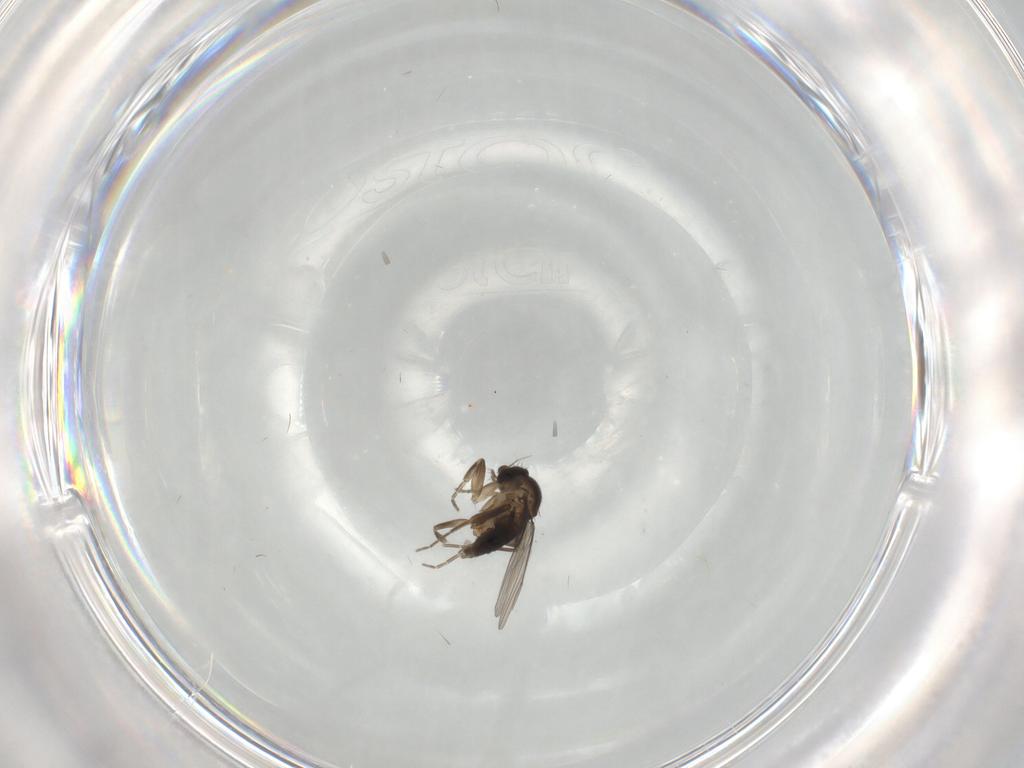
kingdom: Animalia
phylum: Arthropoda
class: Insecta
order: Diptera
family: Phoridae
